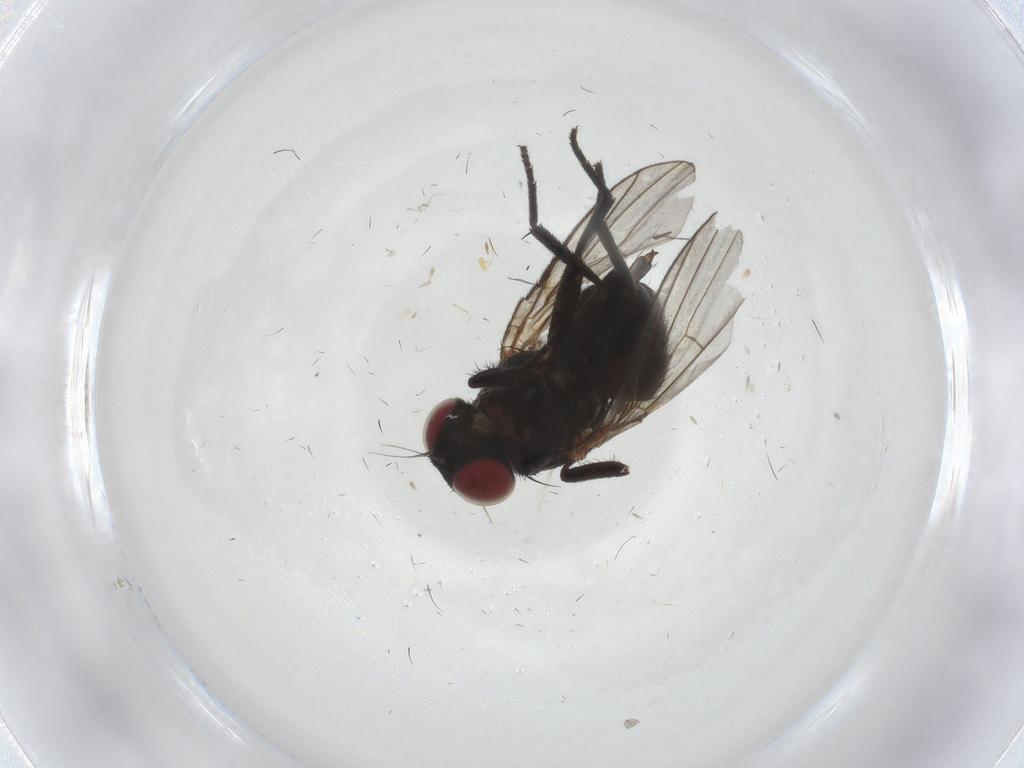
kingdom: Animalia
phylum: Arthropoda
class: Insecta
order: Diptera
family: Agromyzidae
